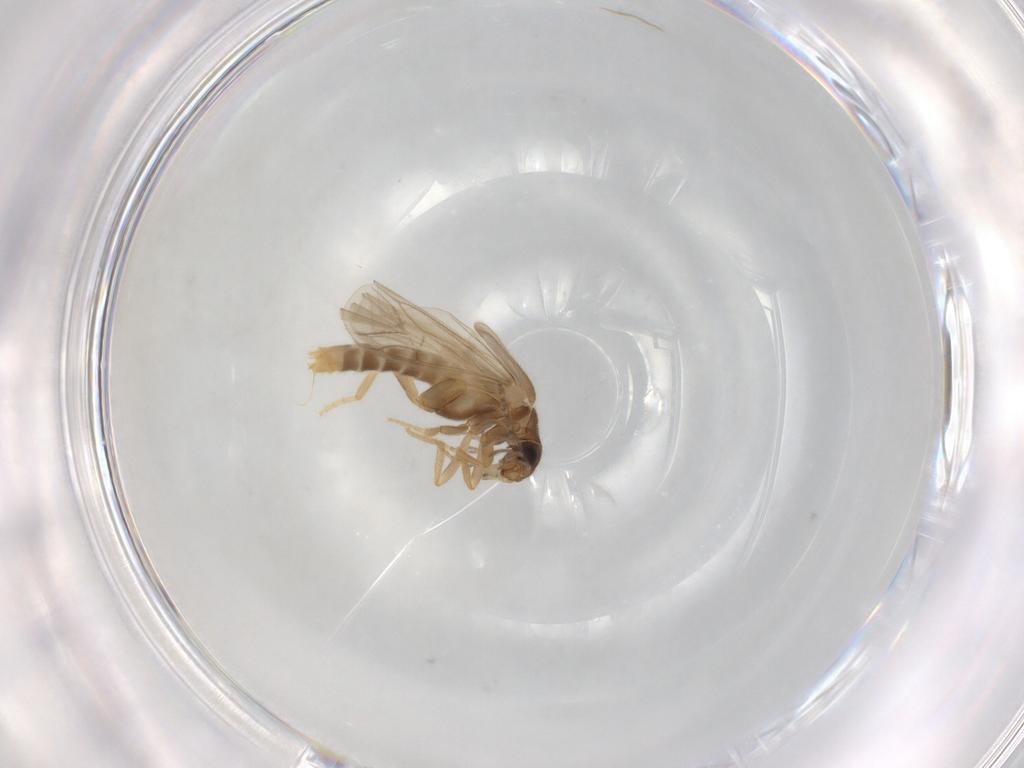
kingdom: Animalia
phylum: Arthropoda
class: Insecta
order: Coleoptera
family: Phengodidae
